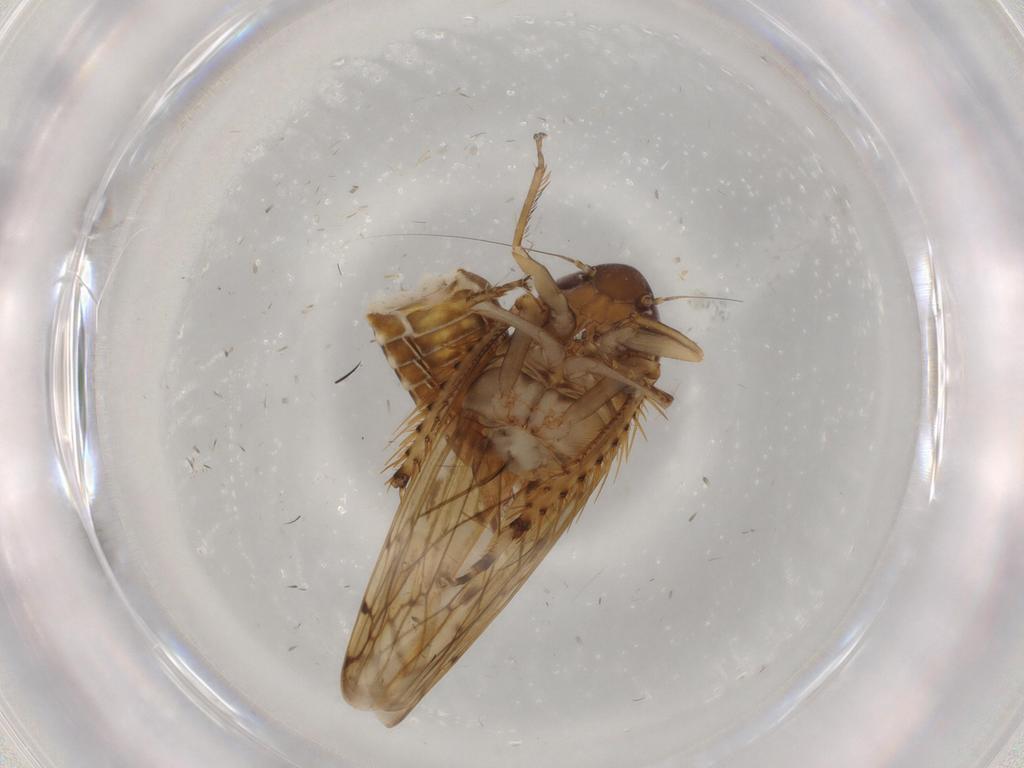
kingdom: Animalia
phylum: Arthropoda
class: Insecta
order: Hemiptera
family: Cicadellidae
